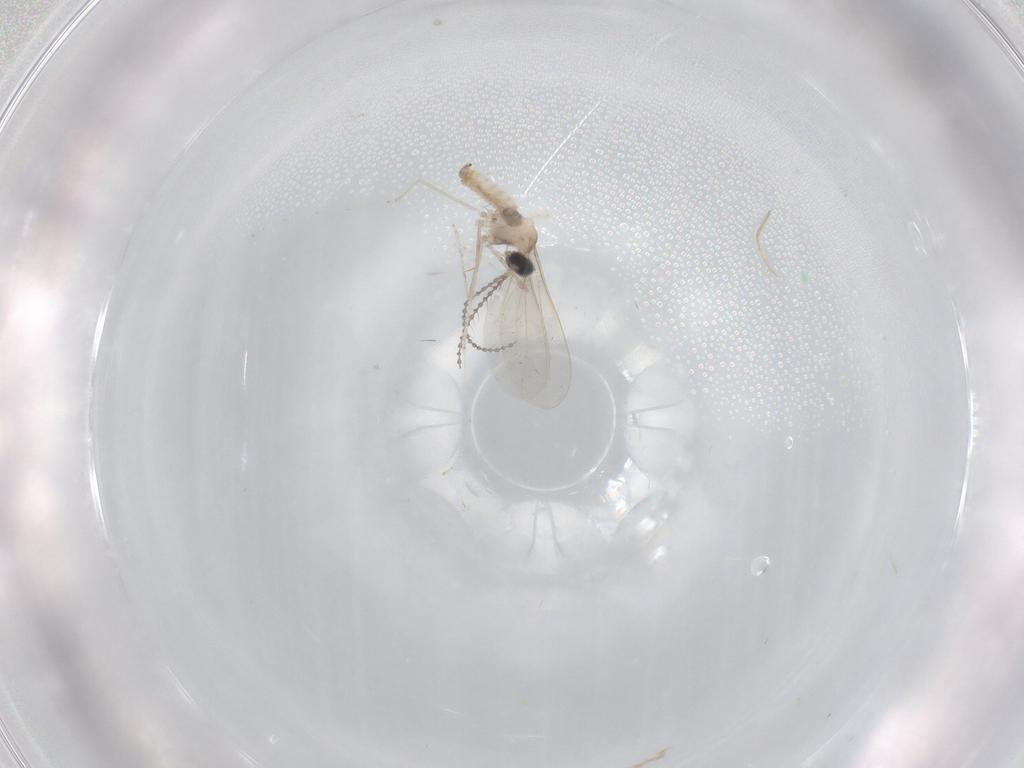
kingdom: Animalia
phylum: Arthropoda
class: Insecta
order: Diptera
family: Cecidomyiidae
